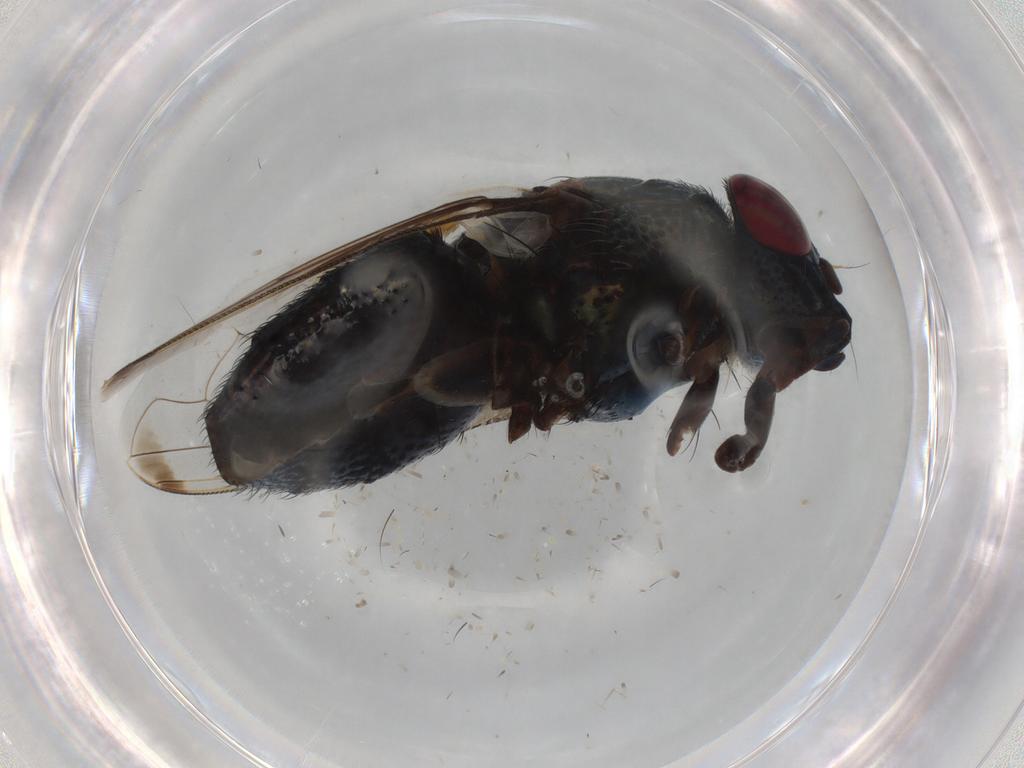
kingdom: Animalia
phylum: Arthropoda
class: Insecta
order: Diptera
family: Calliphoridae
